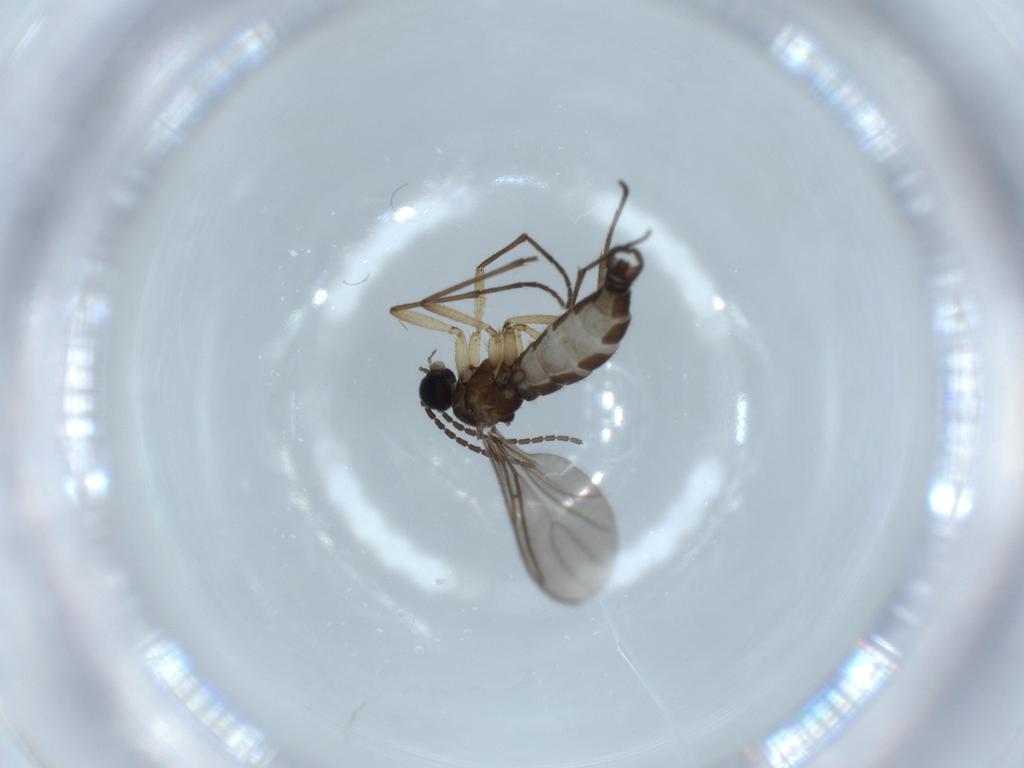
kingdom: Animalia
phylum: Arthropoda
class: Insecta
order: Diptera
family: Sciaridae
